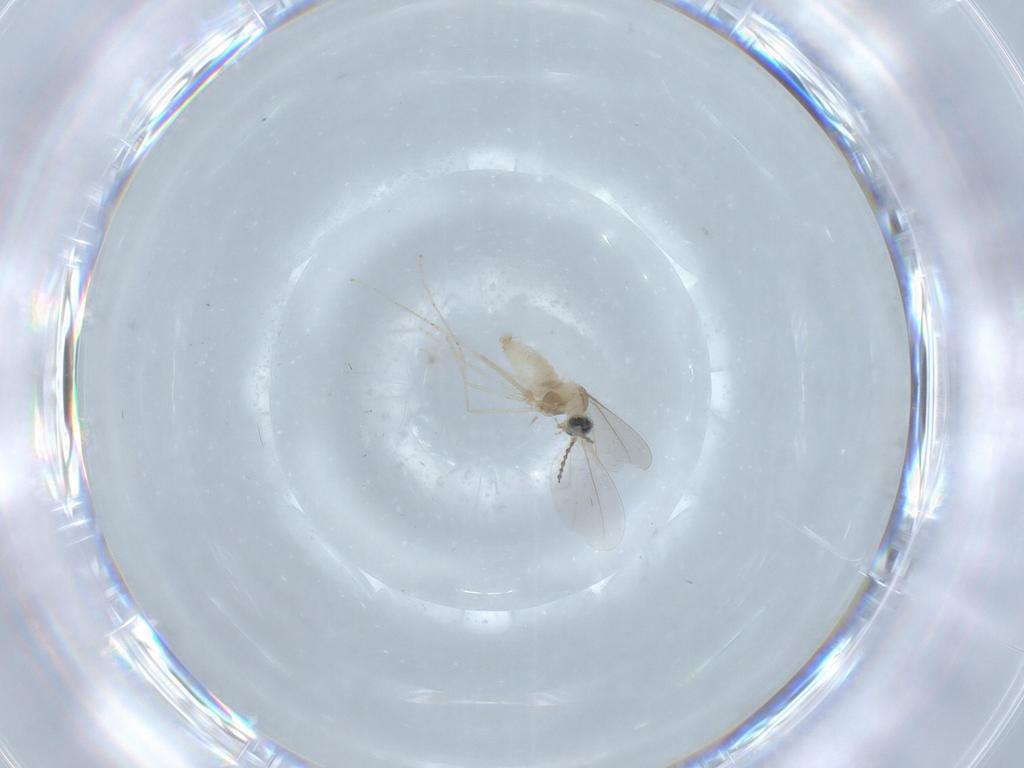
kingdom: Animalia
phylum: Arthropoda
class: Insecta
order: Diptera
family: Cecidomyiidae
